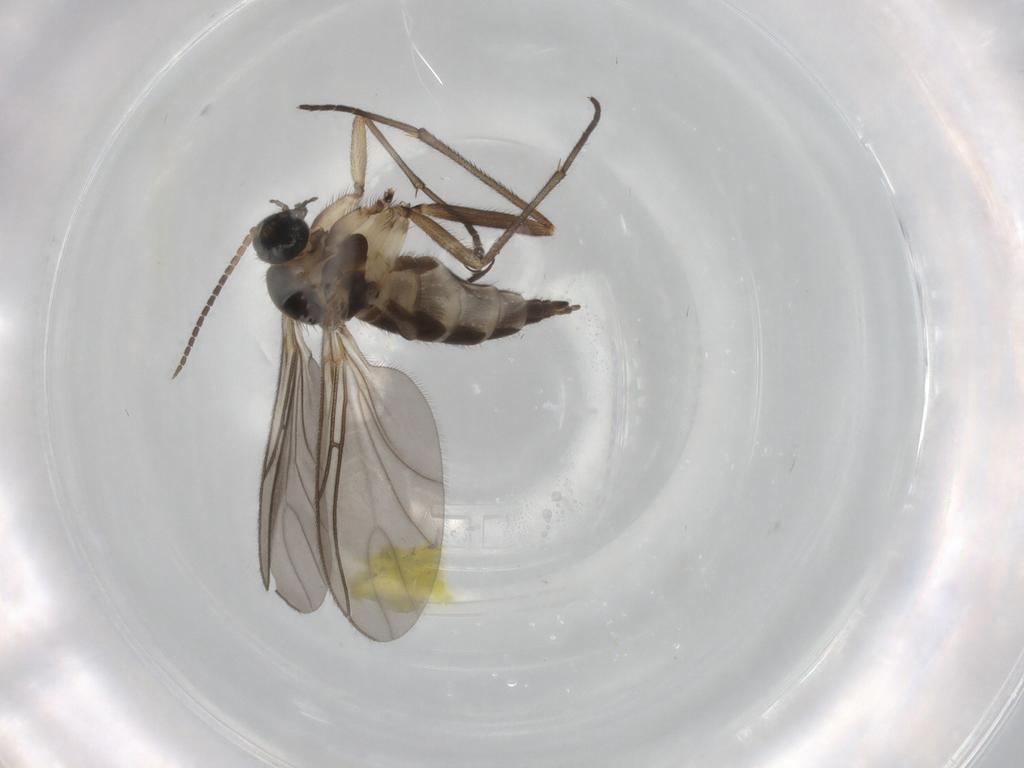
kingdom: Animalia
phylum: Arthropoda
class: Insecta
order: Diptera
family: Sciaridae
